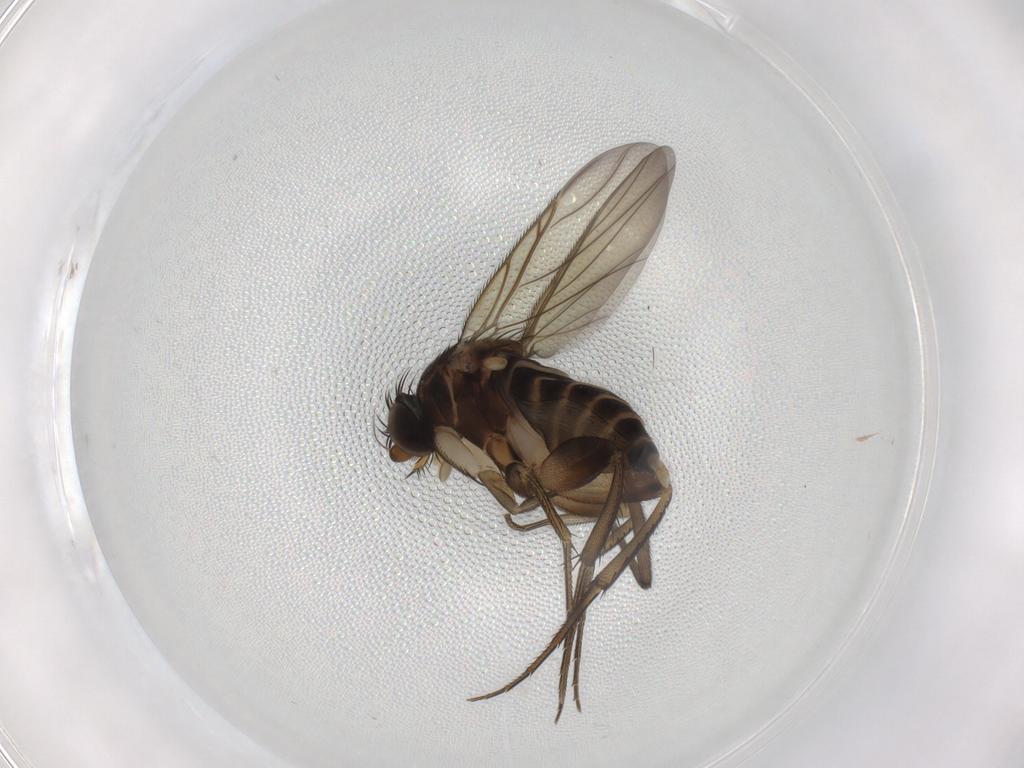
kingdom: Animalia
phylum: Arthropoda
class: Insecta
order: Diptera
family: Phoridae
